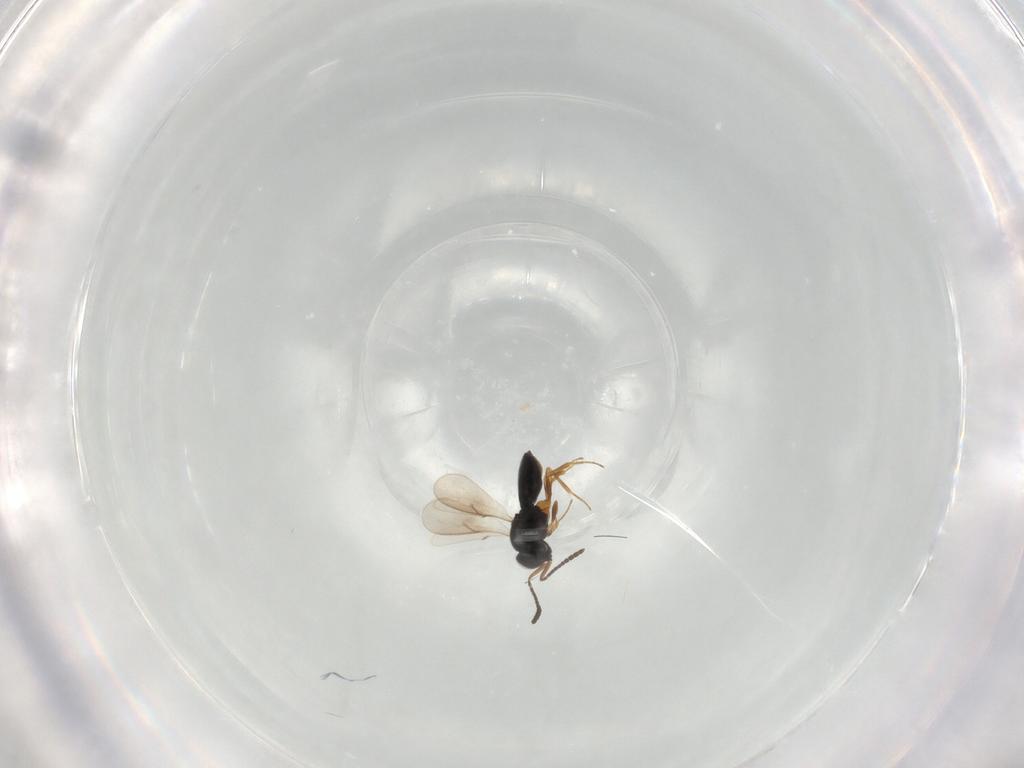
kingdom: Animalia
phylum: Arthropoda
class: Insecta
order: Hymenoptera
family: Scelionidae
